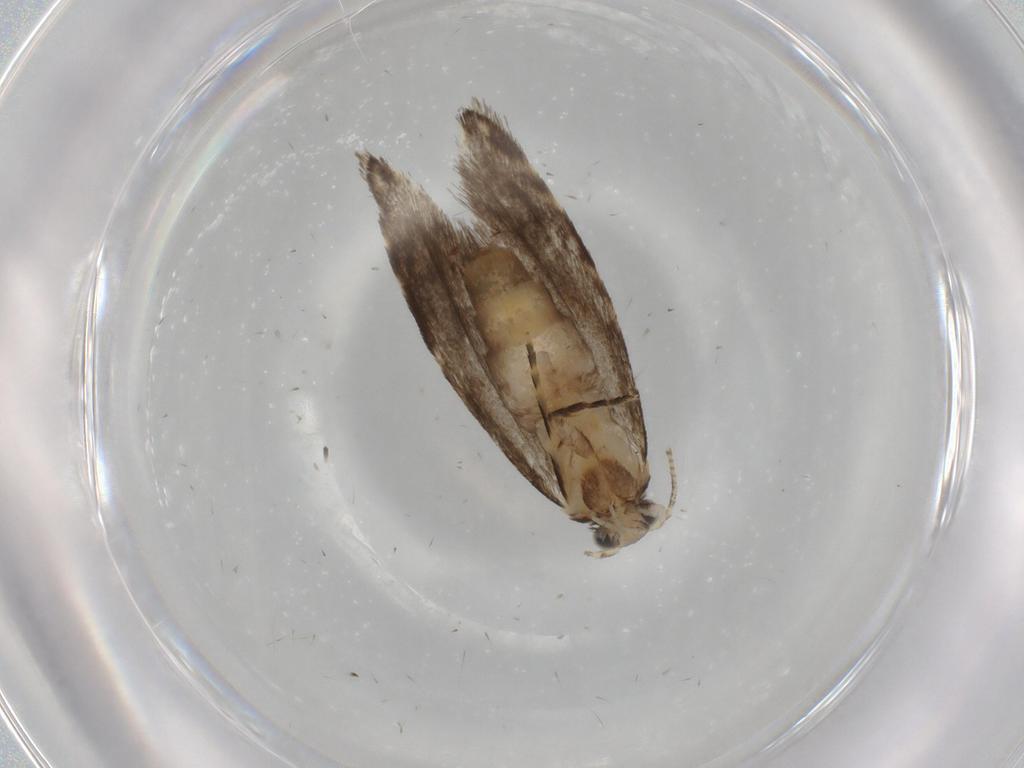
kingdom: Animalia
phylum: Arthropoda
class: Insecta
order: Lepidoptera
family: Tineidae
